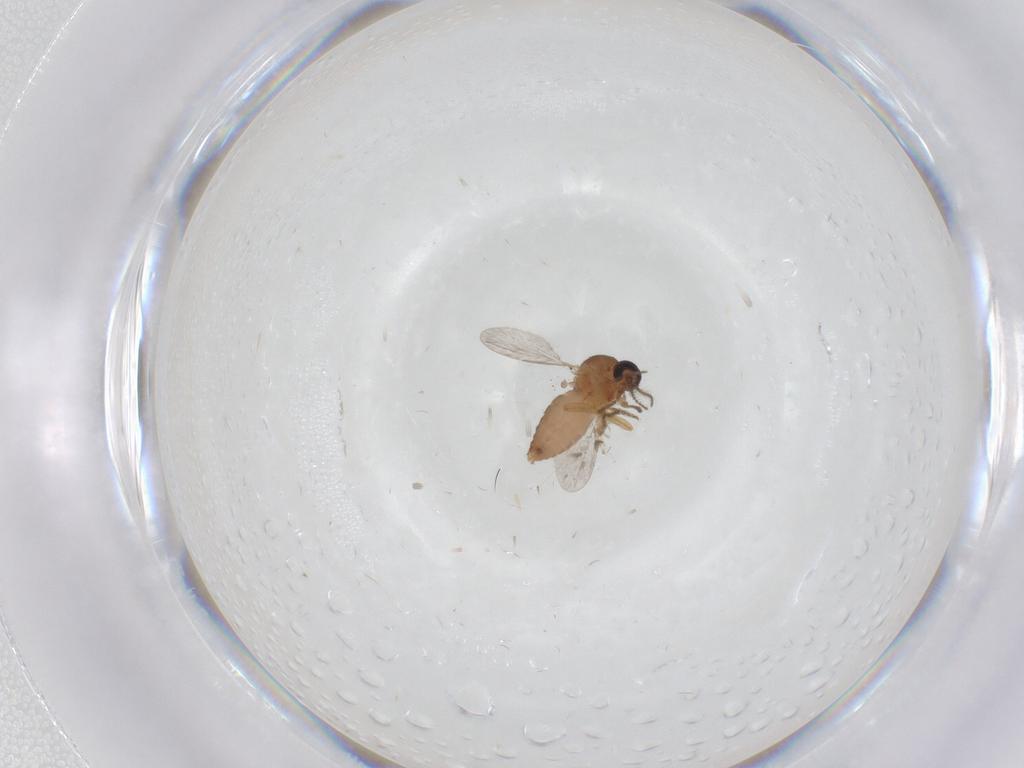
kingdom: Animalia
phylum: Arthropoda
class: Insecta
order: Diptera
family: Ceratopogonidae
